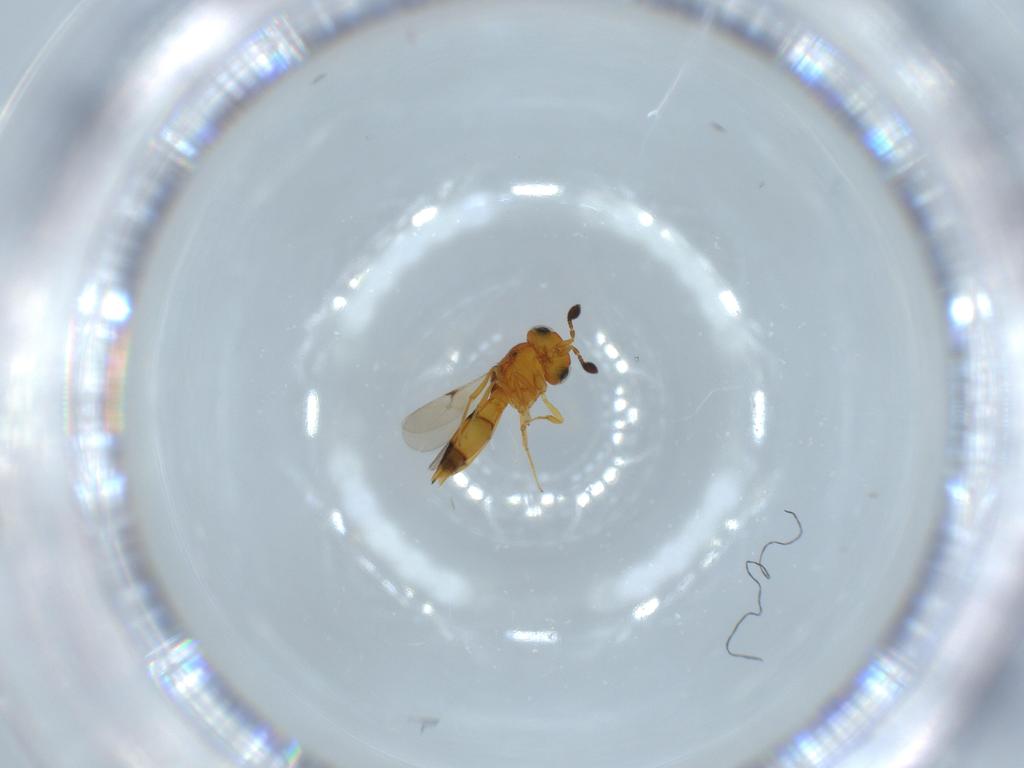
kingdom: Animalia
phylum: Arthropoda
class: Insecta
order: Hymenoptera
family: Scelionidae
